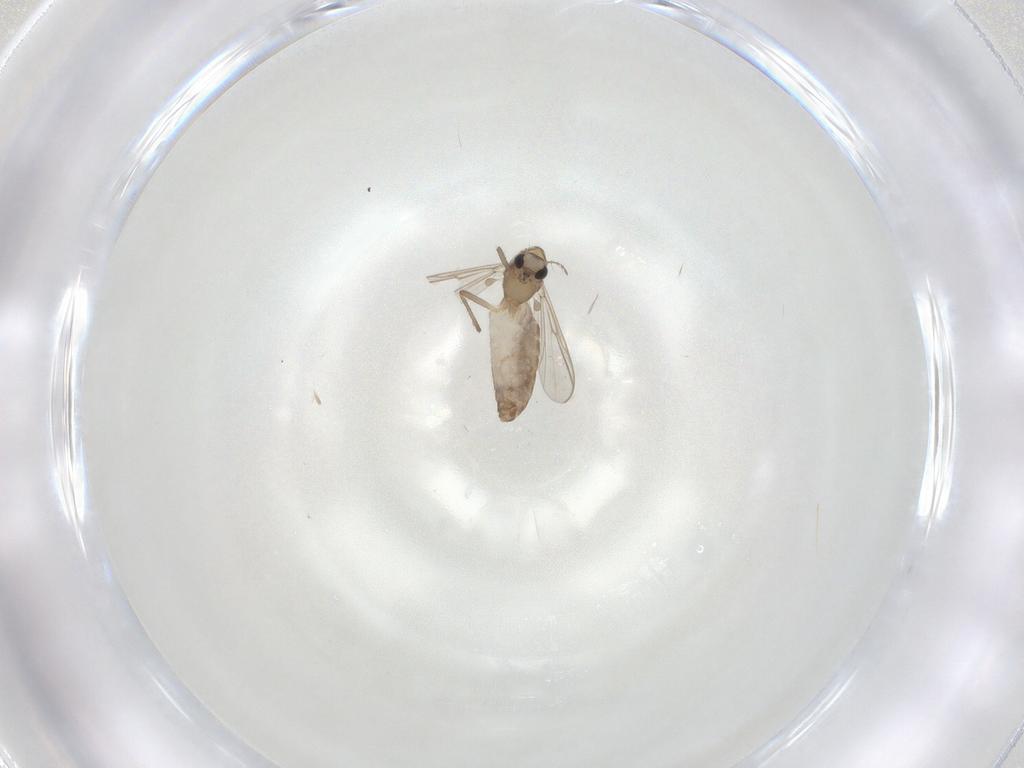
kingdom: Animalia
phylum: Arthropoda
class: Insecta
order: Diptera
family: Chironomidae
